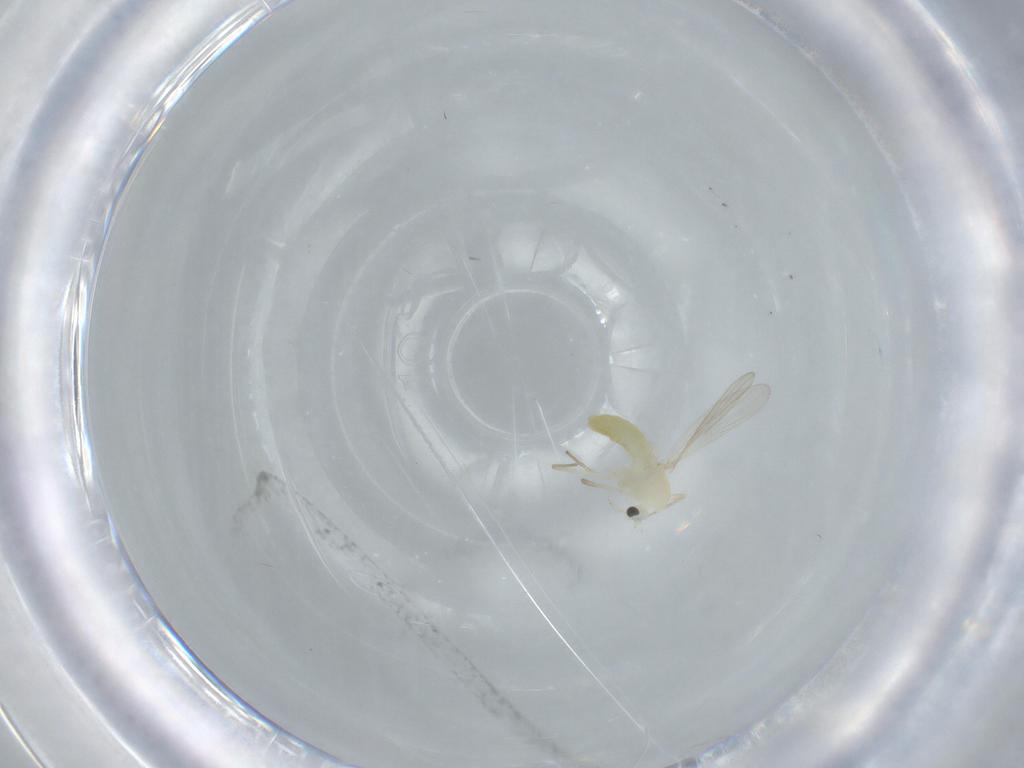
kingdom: Animalia
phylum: Arthropoda
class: Insecta
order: Diptera
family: Chironomidae
